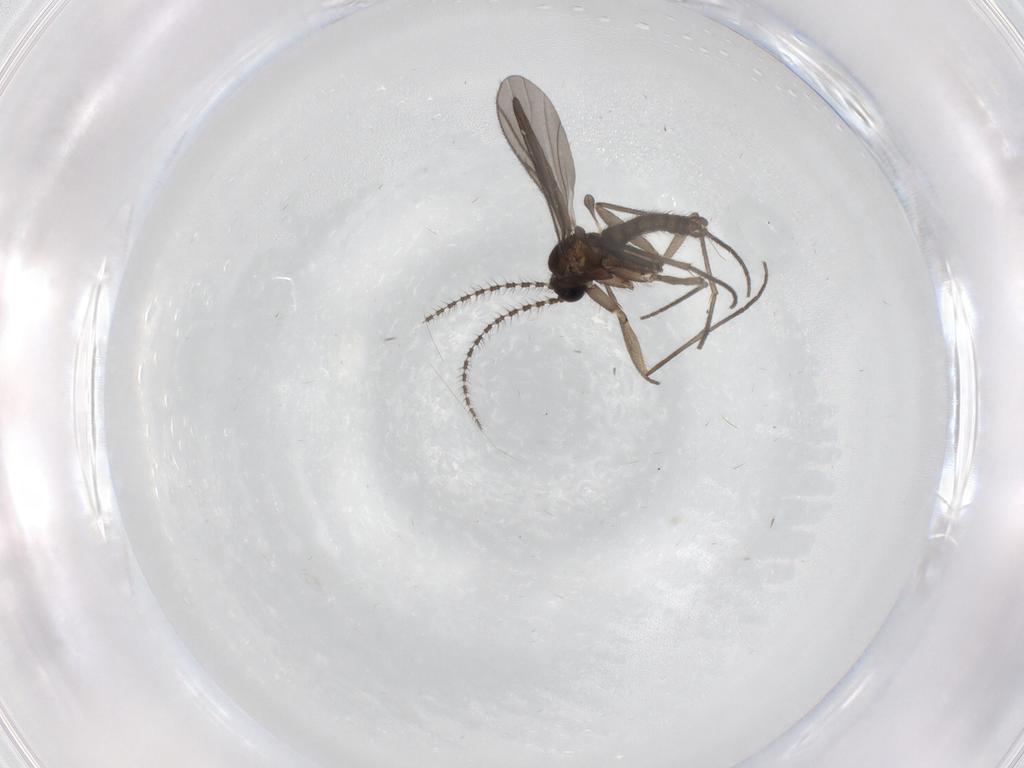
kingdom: Animalia
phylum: Arthropoda
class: Insecta
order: Diptera
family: Sciaridae
